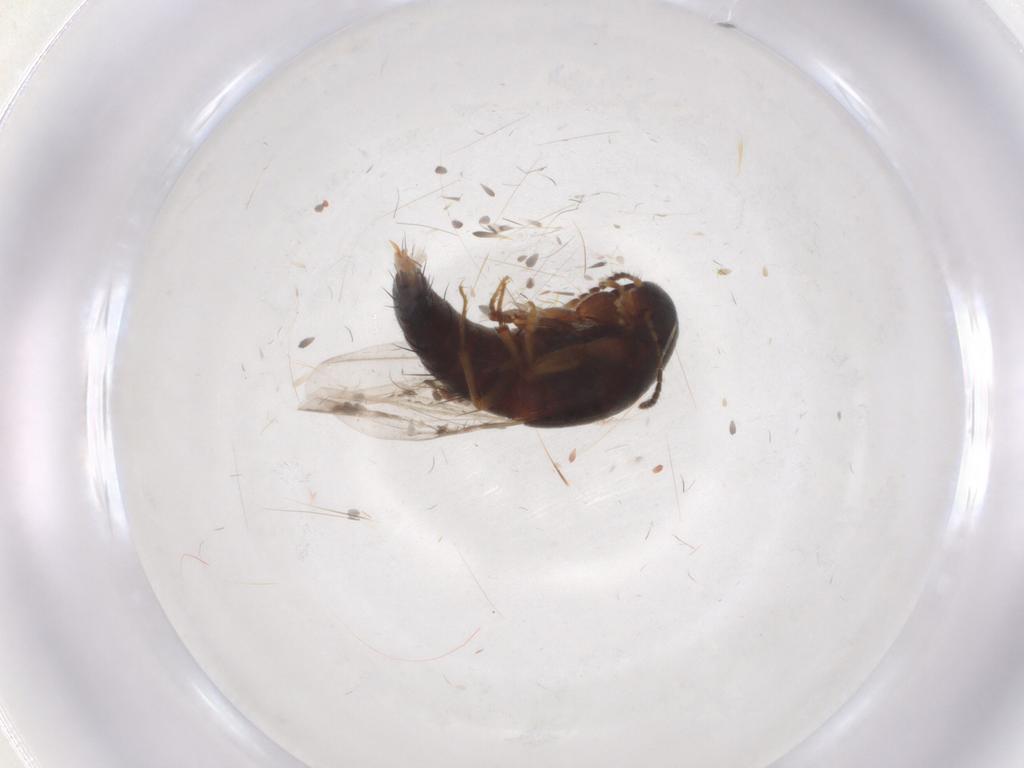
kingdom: Animalia
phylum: Arthropoda
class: Insecta
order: Coleoptera
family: Staphylinidae
